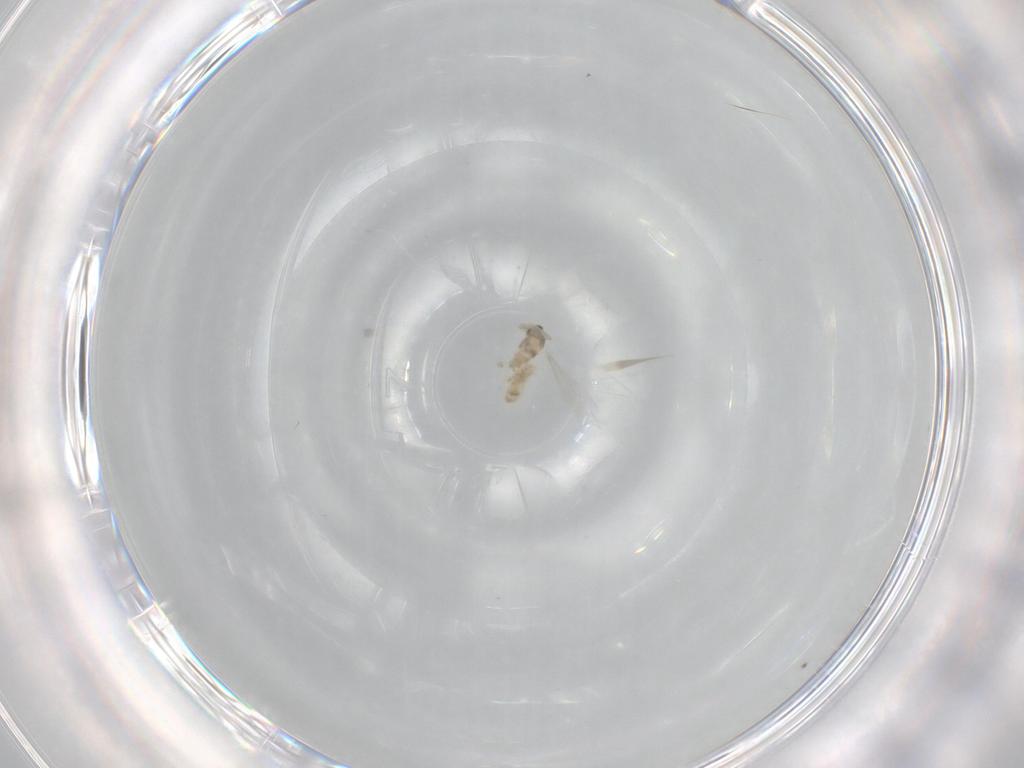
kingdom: Animalia
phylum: Arthropoda
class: Insecta
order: Diptera
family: Cecidomyiidae
